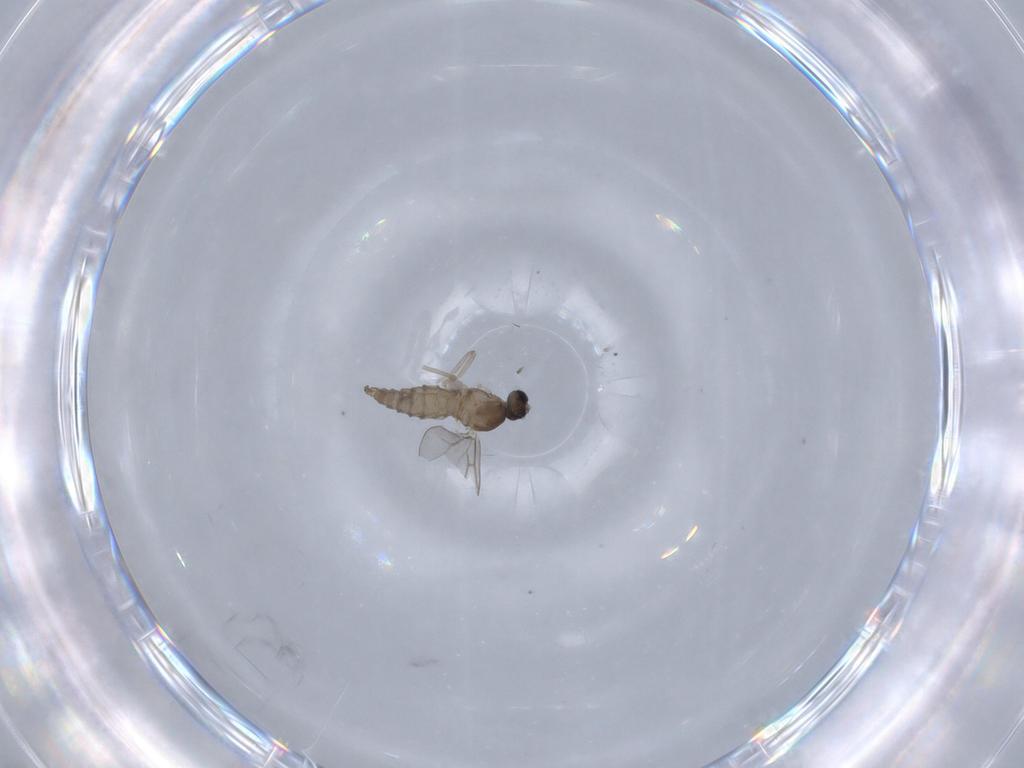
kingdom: Animalia
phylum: Arthropoda
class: Insecta
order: Diptera
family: Cecidomyiidae
